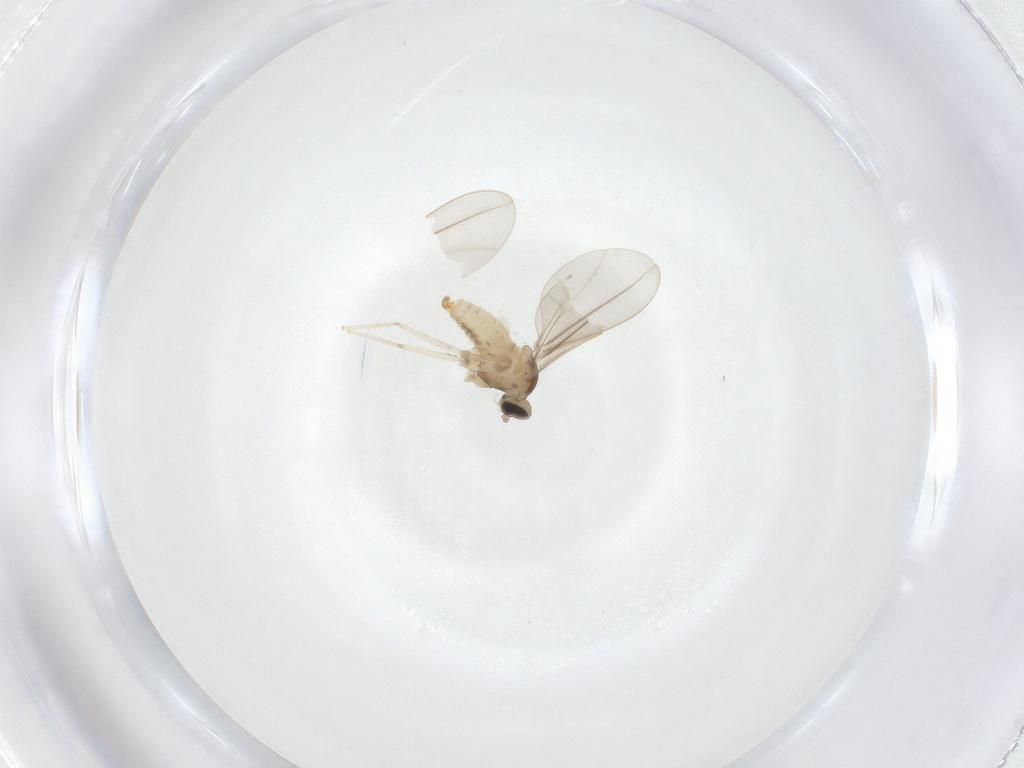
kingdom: Animalia
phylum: Arthropoda
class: Insecta
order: Diptera
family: Cecidomyiidae
